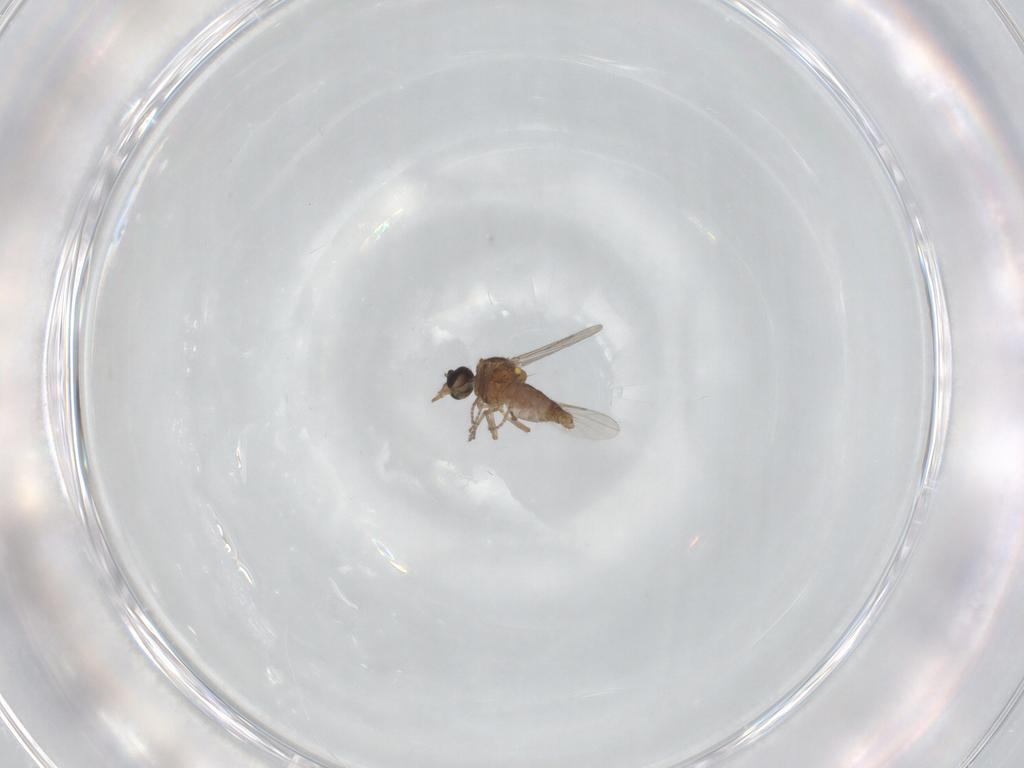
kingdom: Animalia
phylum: Arthropoda
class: Insecta
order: Diptera
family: Ceratopogonidae
